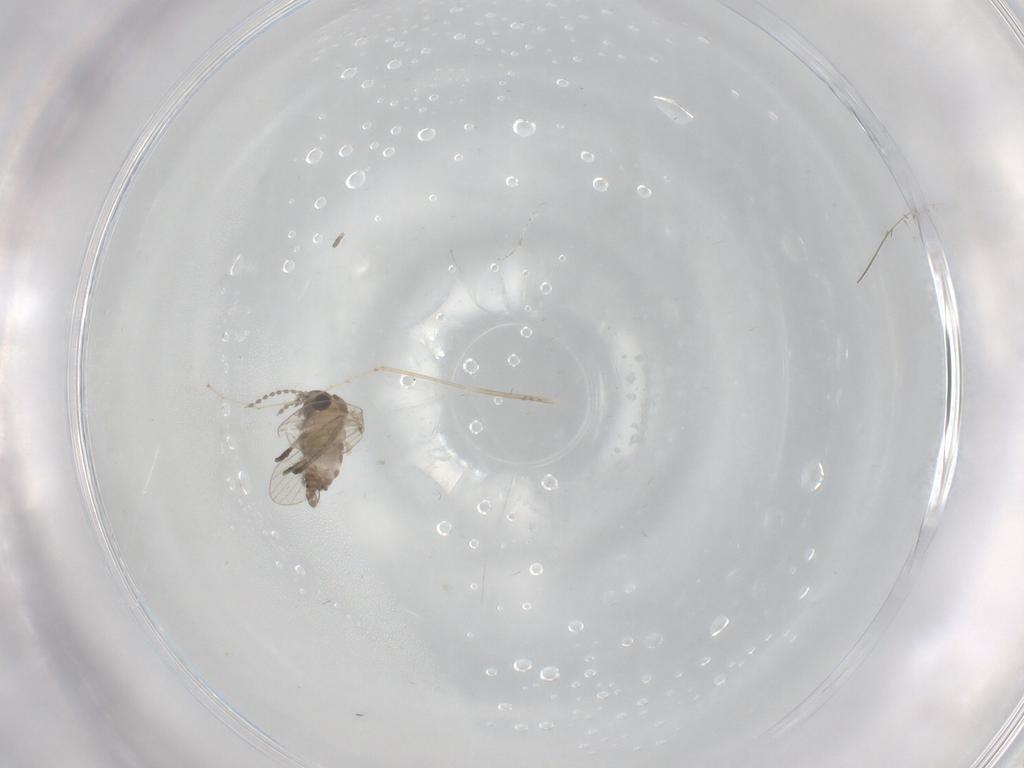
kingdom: Animalia
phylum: Arthropoda
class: Insecta
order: Diptera
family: Cecidomyiidae
